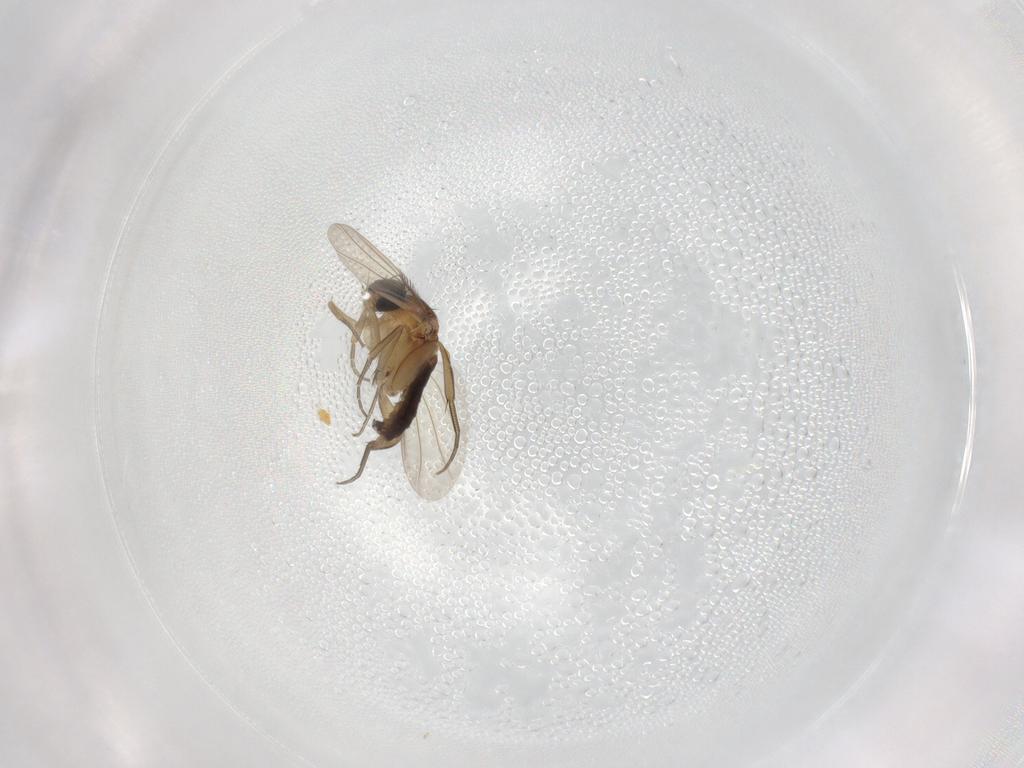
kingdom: Animalia
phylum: Arthropoda
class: Insecta
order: Diptera
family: Phoridae
